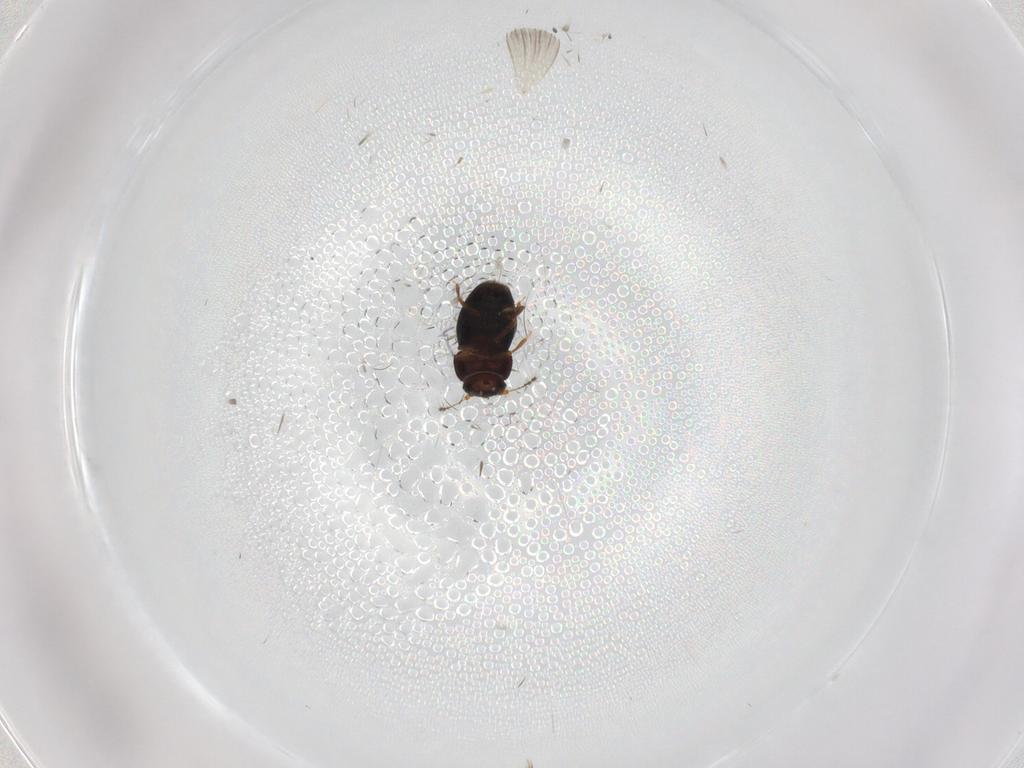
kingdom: Animalia
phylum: Arthropoda
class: Insecta
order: Coleoptera
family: Ptiliidae
